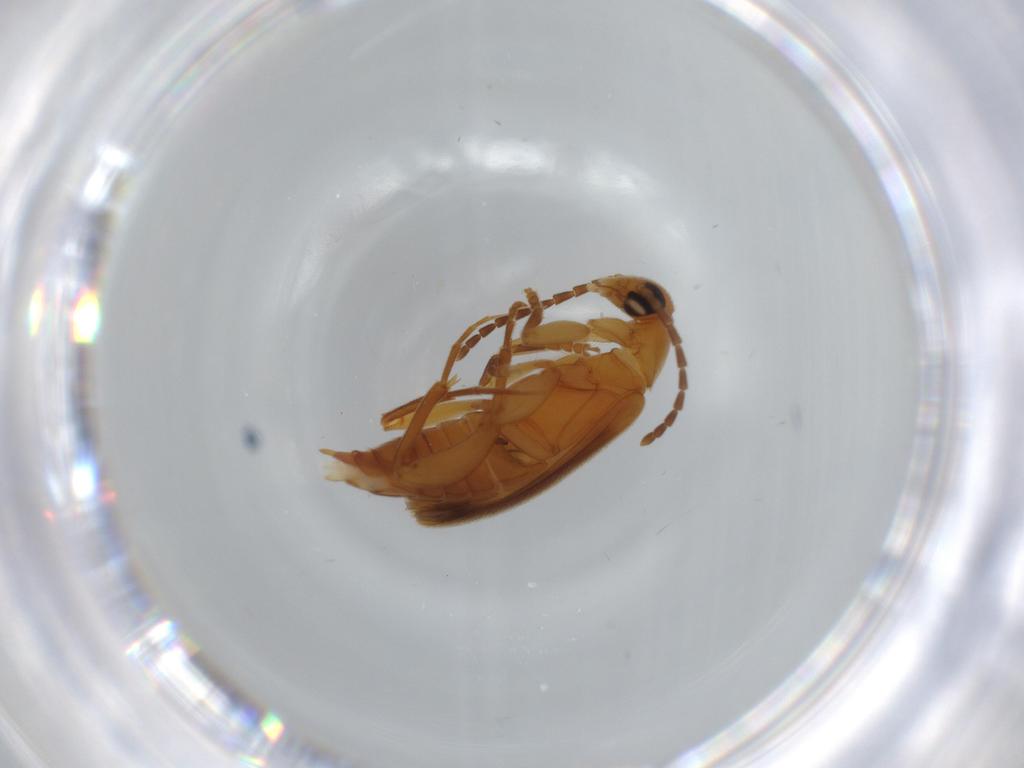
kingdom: Animalia
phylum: Arthropoda
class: Insecta
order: Coleoptera
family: Scraptiidae
